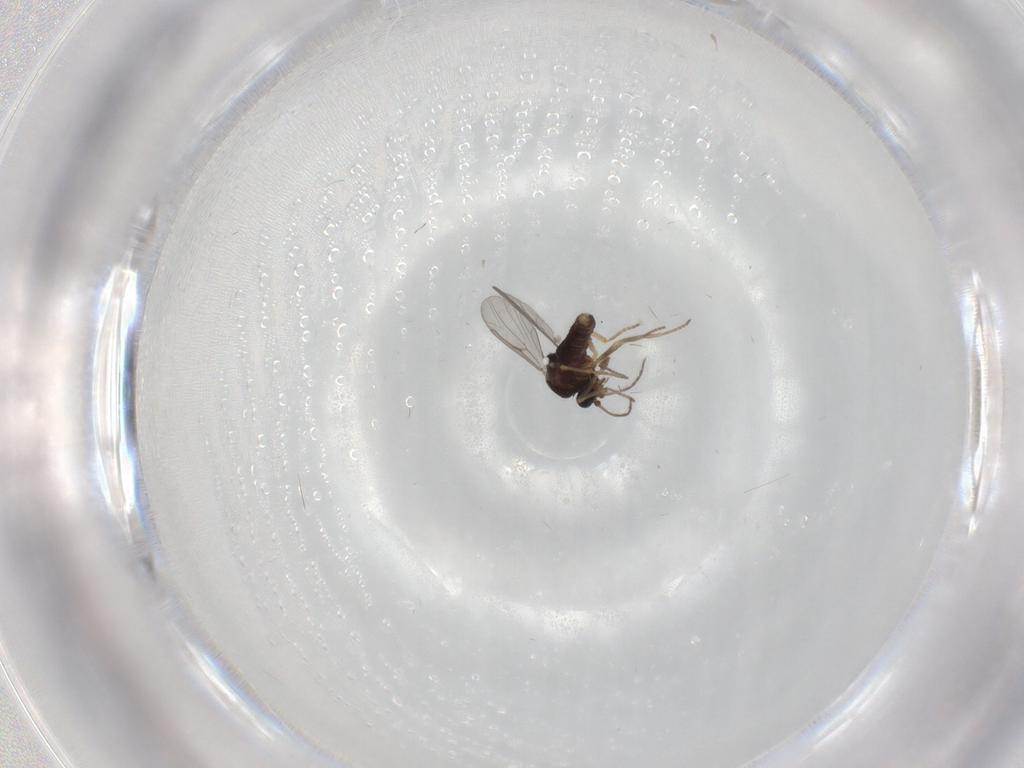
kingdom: Animalia
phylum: Arthropoda
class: Insecta
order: Diptera
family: Ceratopogonidae
